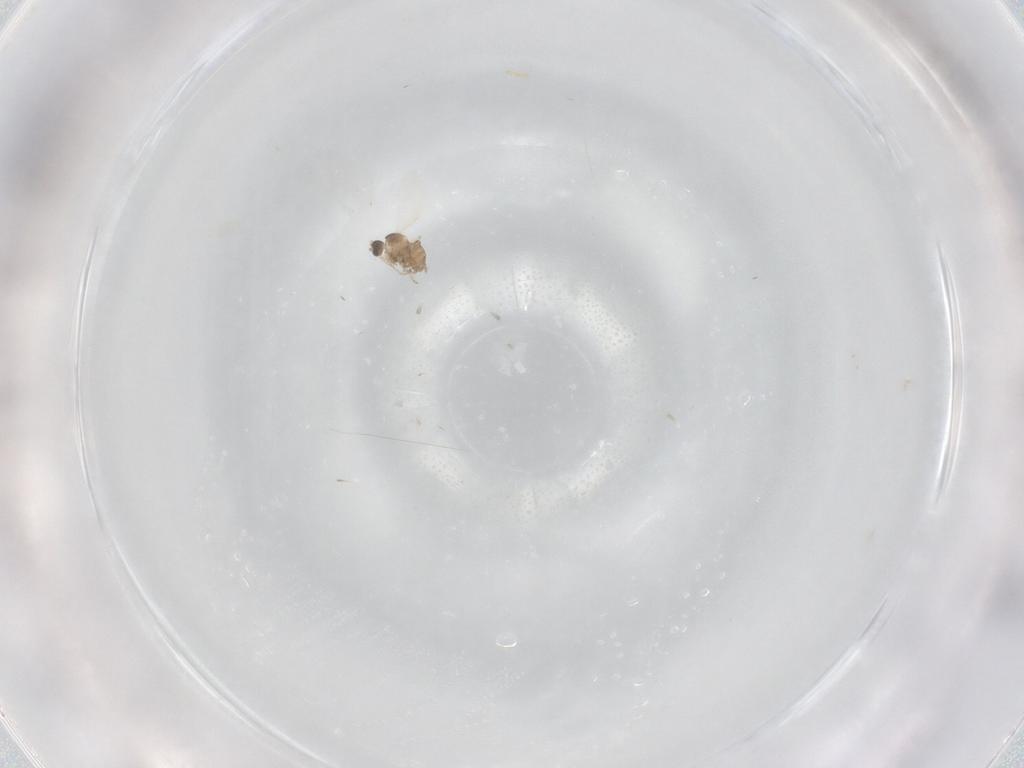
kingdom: Animalia
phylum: Arthropoda
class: Insecta
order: Diptera
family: Cecidomyiidae
